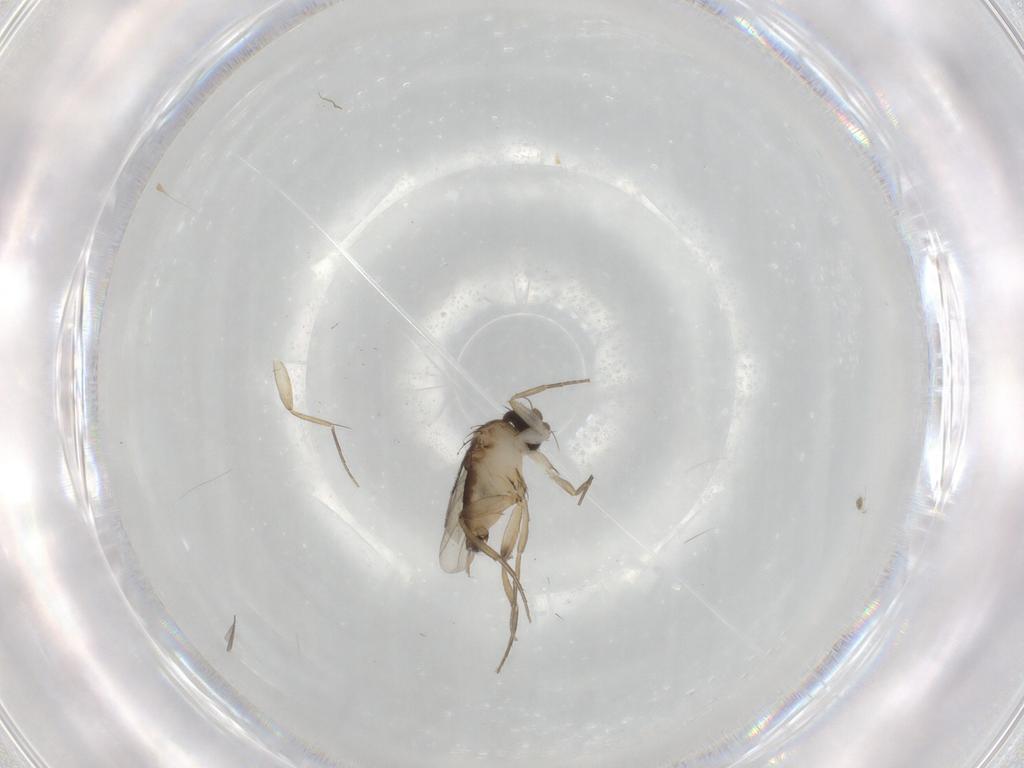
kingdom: Animalia
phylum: Arthropoda
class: Insecta
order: Diptera
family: Phoridae
